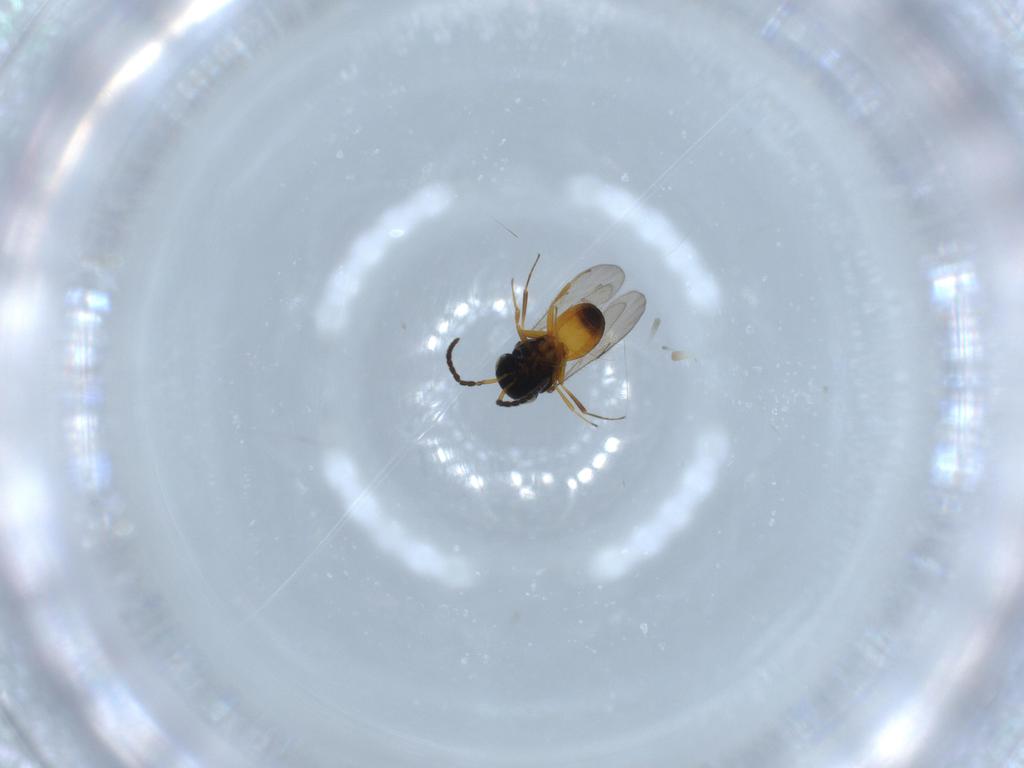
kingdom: Animalia
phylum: Arthropoda
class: Insecta
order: Hymenoptera
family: Scelionidae
